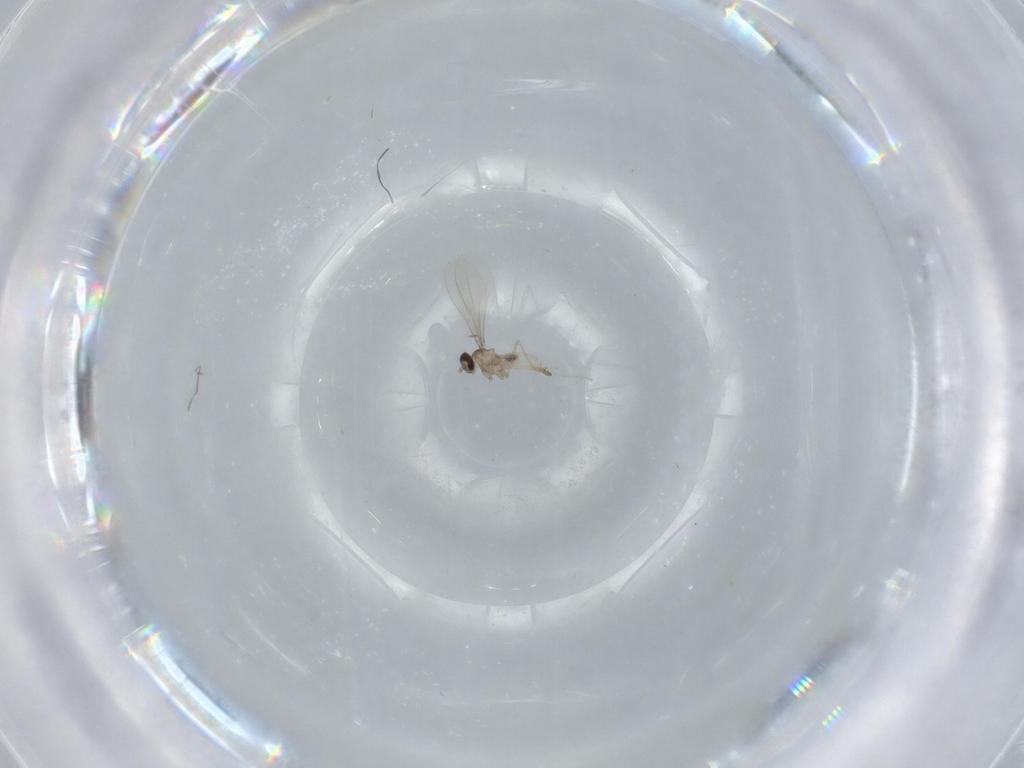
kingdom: Animalia
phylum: Arthropoda
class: Insecta
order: Diptera
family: Cecidomyiidae
